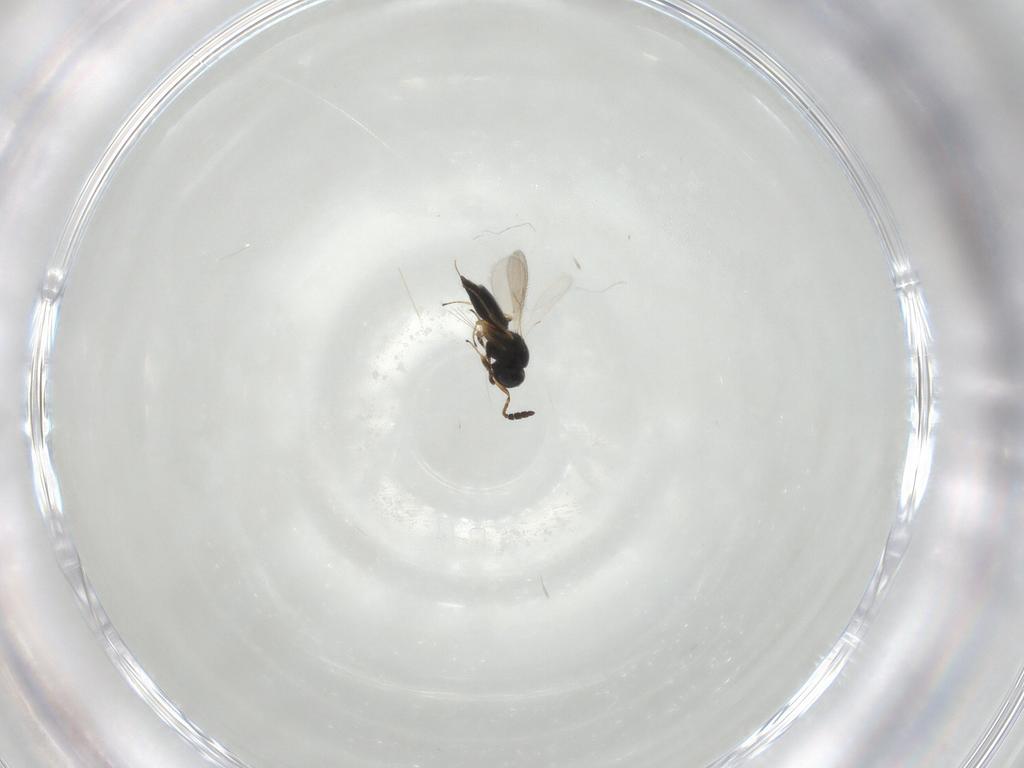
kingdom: Animalia
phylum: Arthropoda
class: Insecta
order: Hymenoptera
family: Scelionidae
